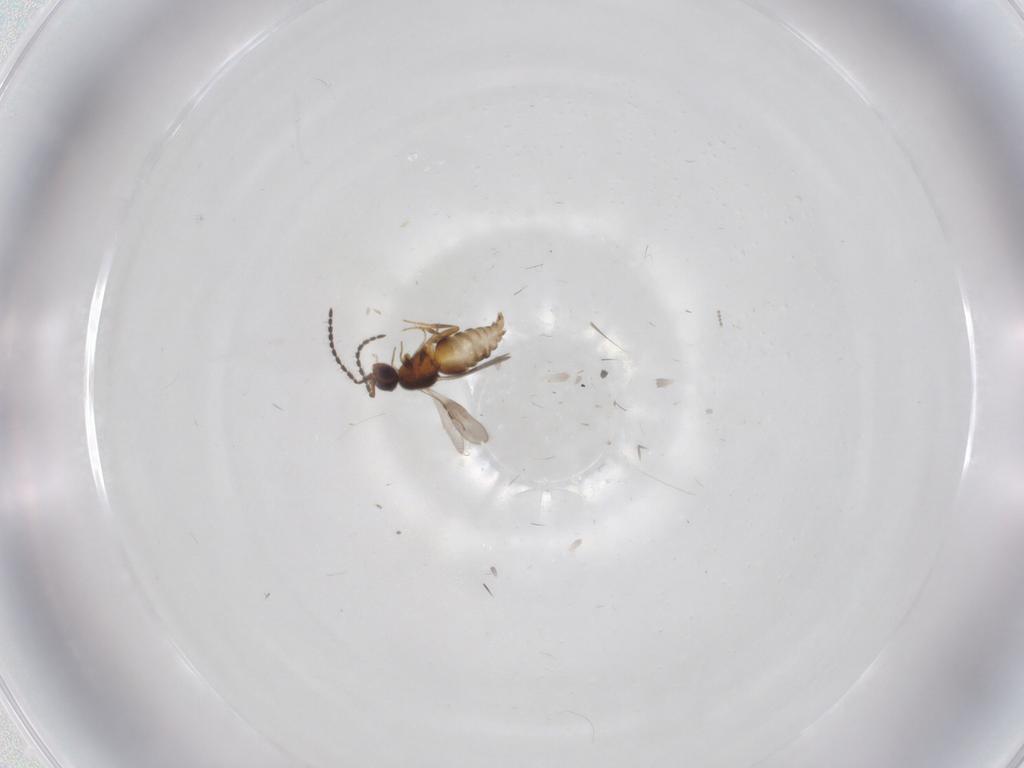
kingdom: Animalia
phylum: Arthropoda
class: Insecta
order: Hymenoptera
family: Ceraphronidae
